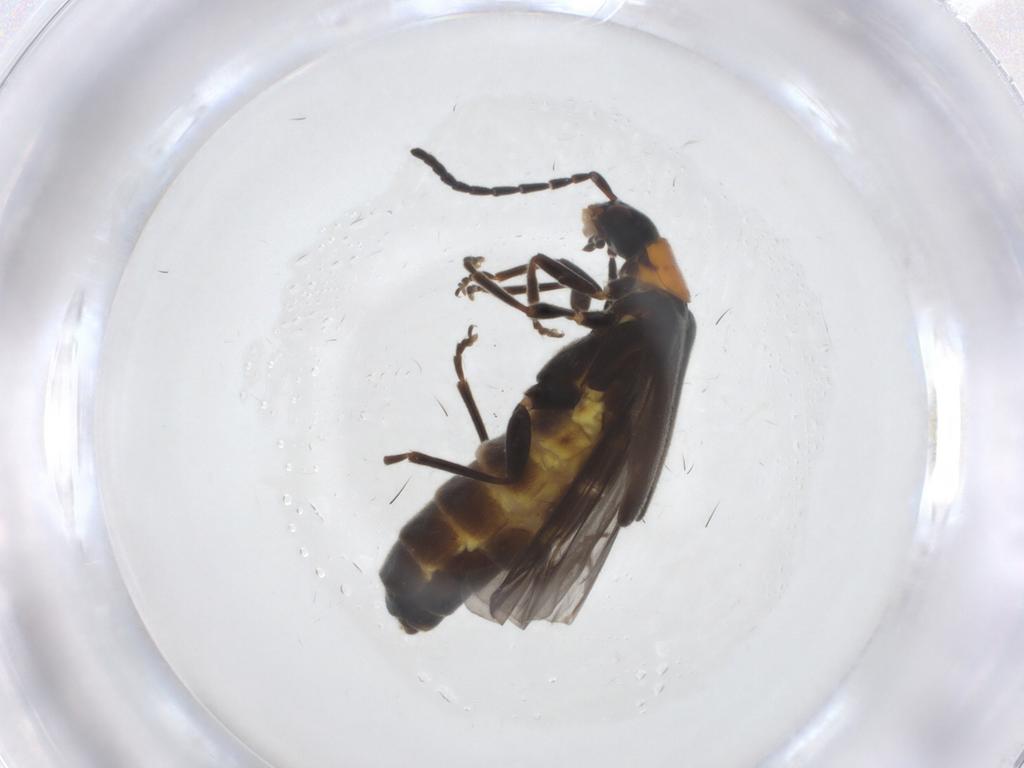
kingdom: Animalia
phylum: Arthropoda
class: Insecta
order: Coleoptera
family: Cantharidae
